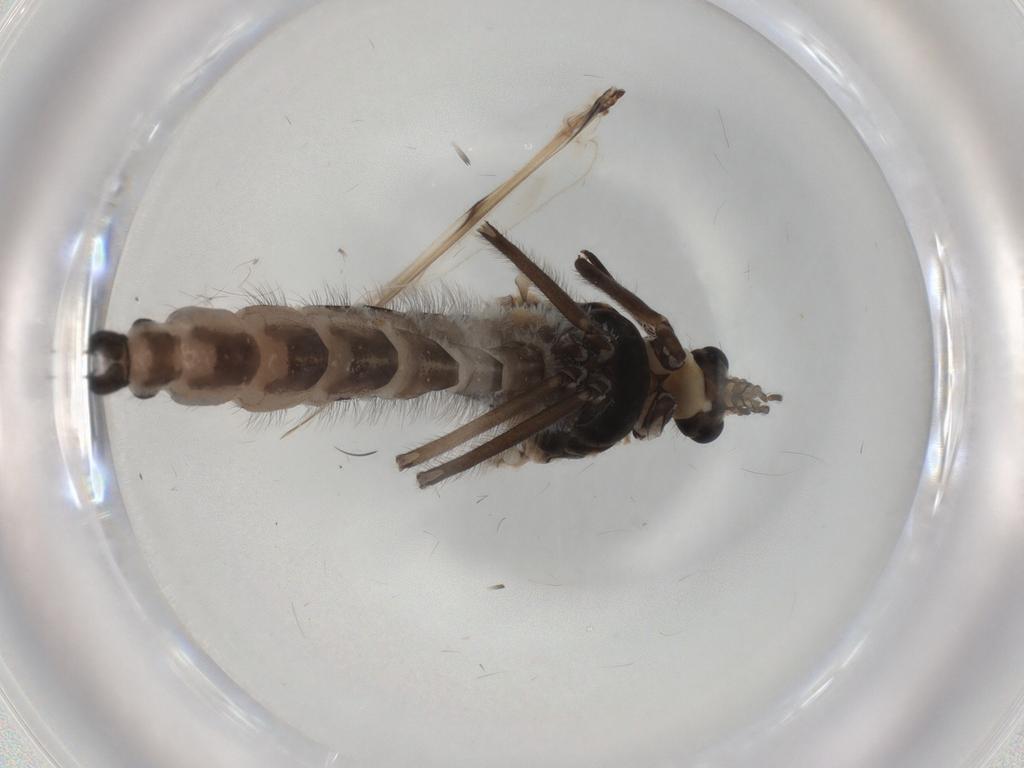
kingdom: Animalia
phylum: Arthropoda
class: Insecta
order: Diptera
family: Chironomidae
